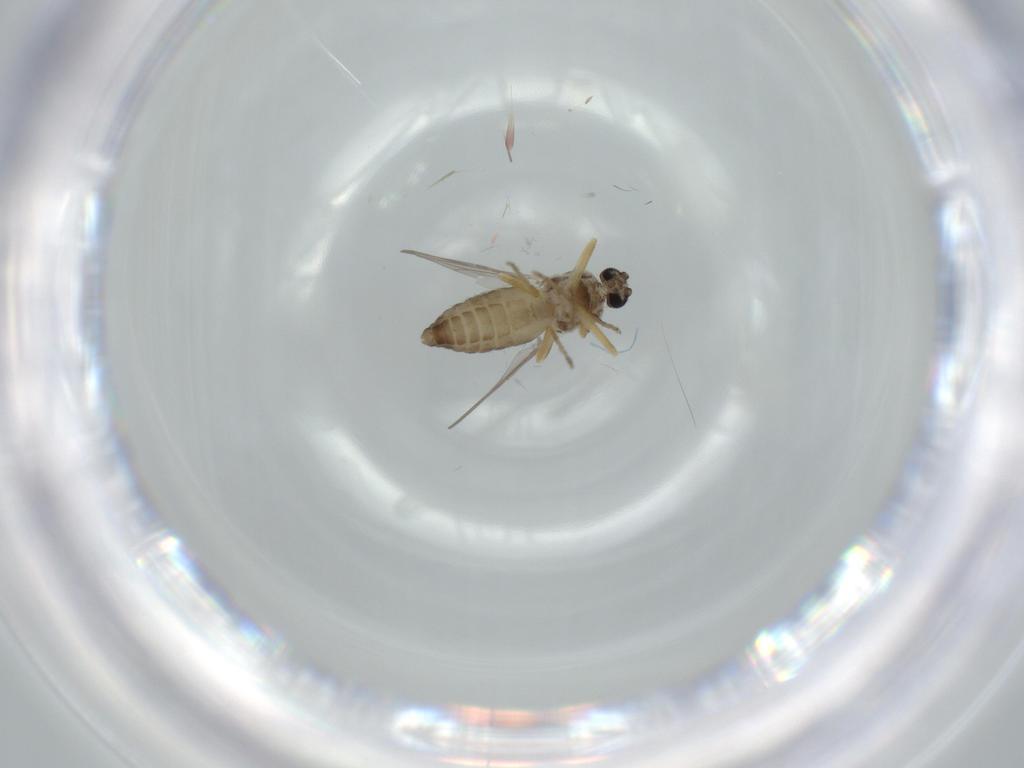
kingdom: Animalia
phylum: Arthropoda
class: Insecta
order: Diptera
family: Ceratopogonidae
